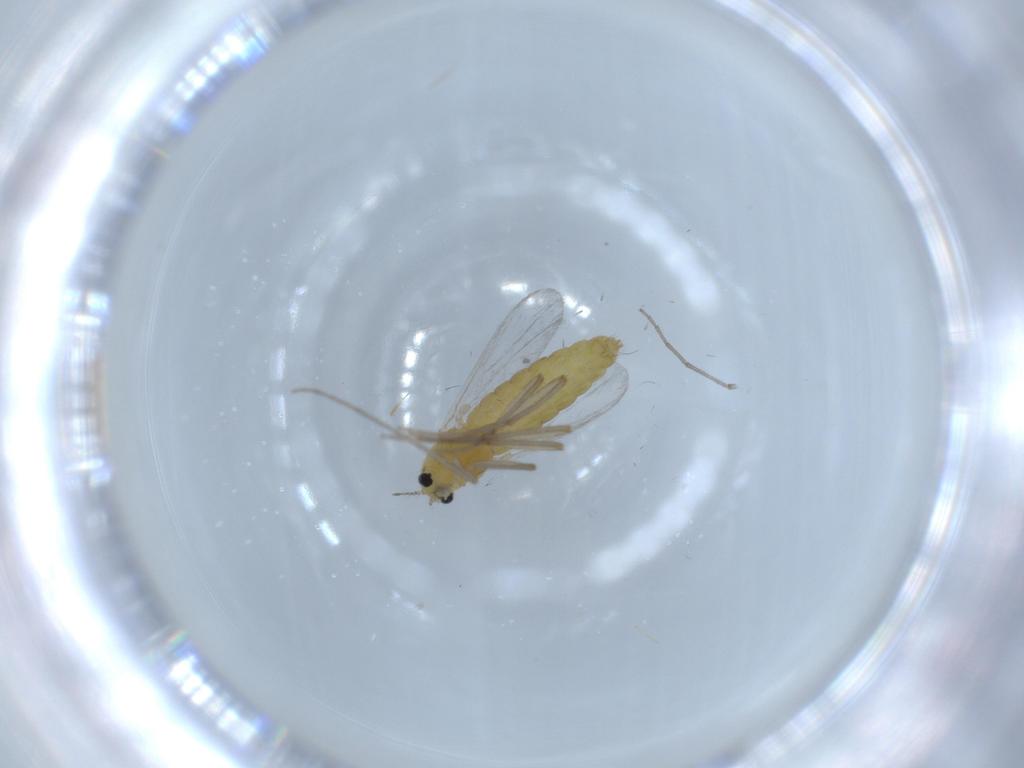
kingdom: Animalia
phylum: Arthropoda
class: Insecta
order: Diptera
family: Chironomidae
